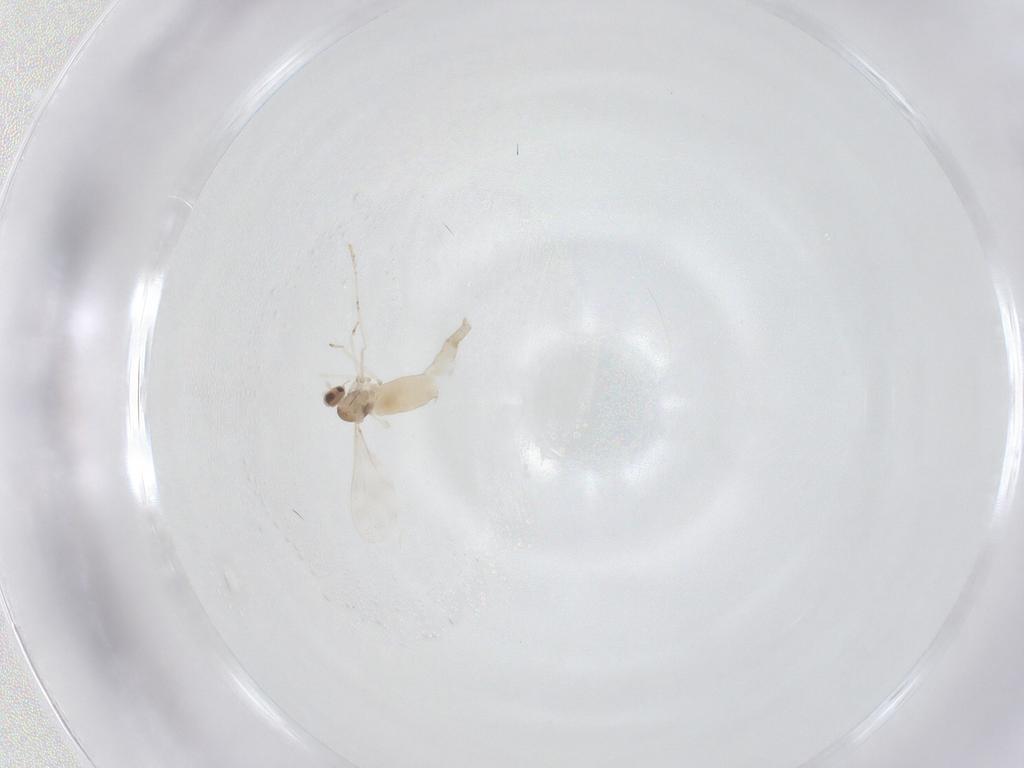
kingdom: Animalia
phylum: Arthropoda
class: Insecta
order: Diptera
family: Cecidomyiidae
